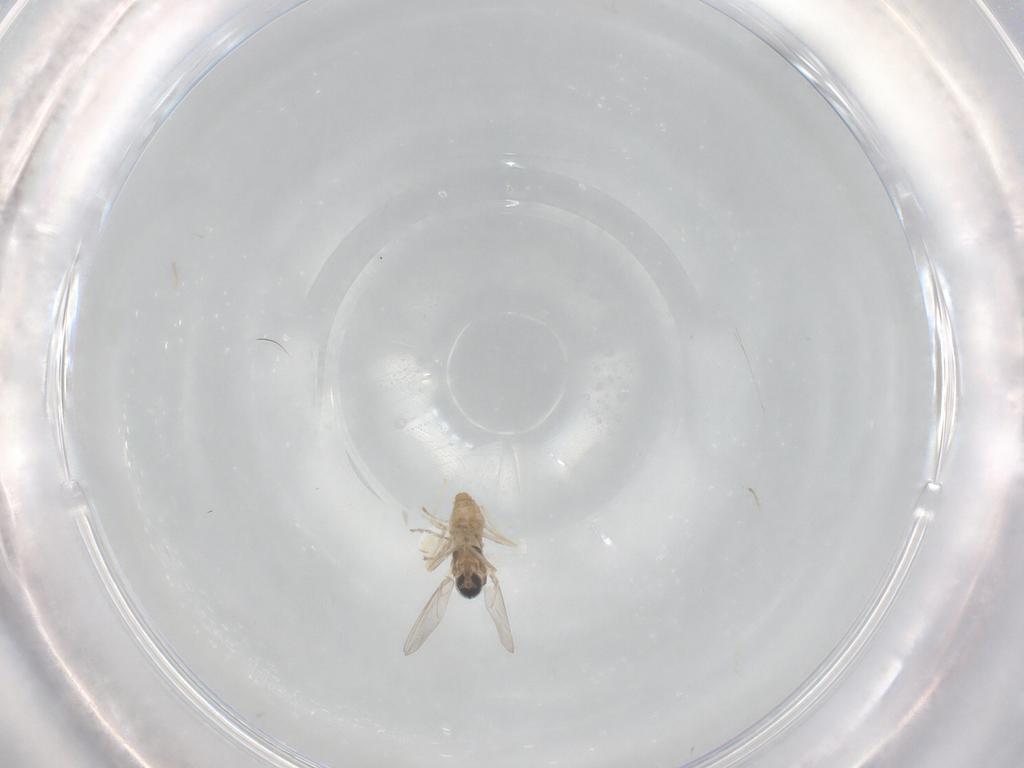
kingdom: Animalia
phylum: Arthropoda
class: Insecta
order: Diptera
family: Cecidomyiidae
